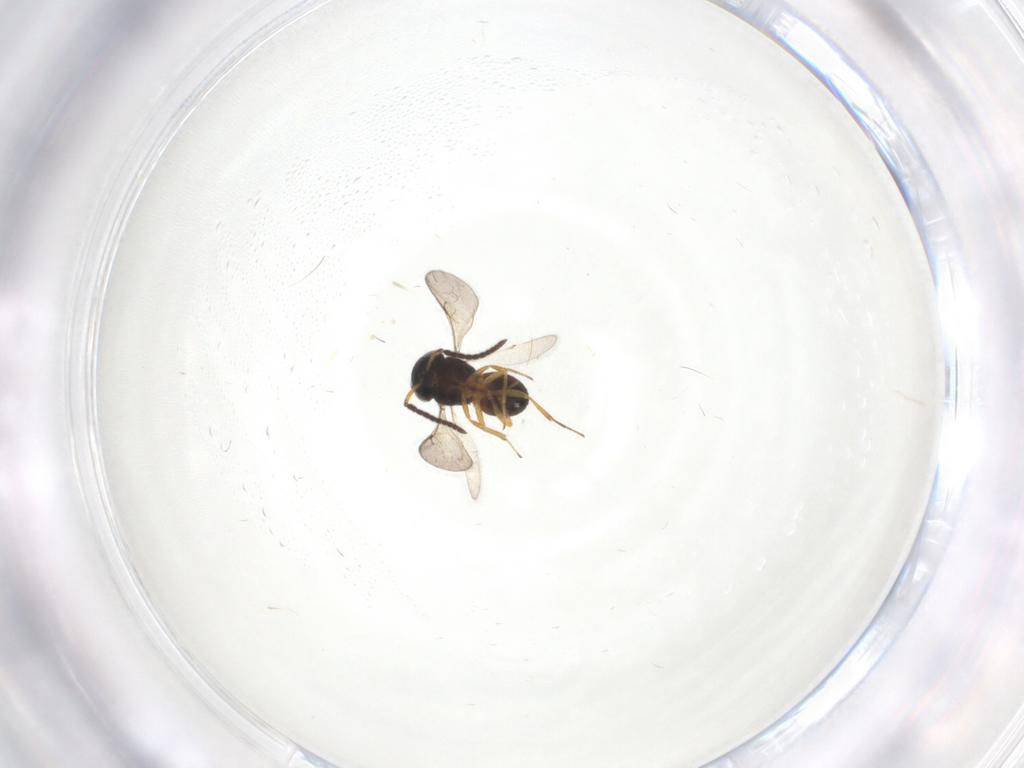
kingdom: Animalia
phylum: Arthropoda
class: Insecta
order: Hymenoptera
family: Scelionidae
